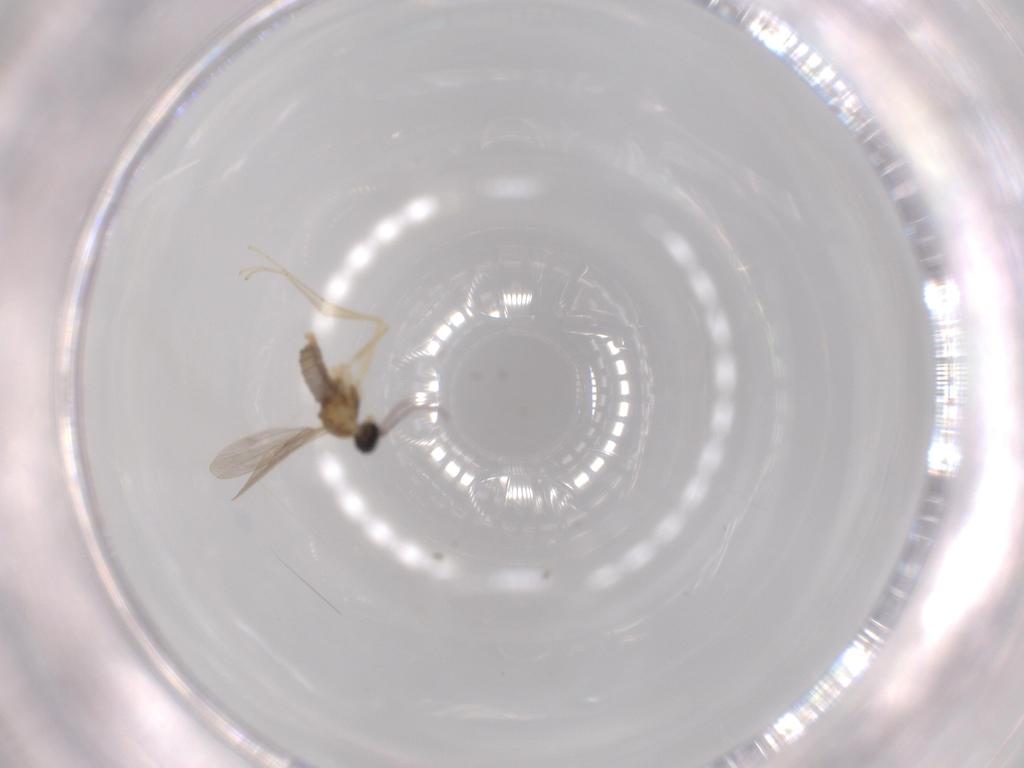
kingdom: Animalia
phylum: Arthropoda
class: Insecta
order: Diptera
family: Cecidomyiidae
